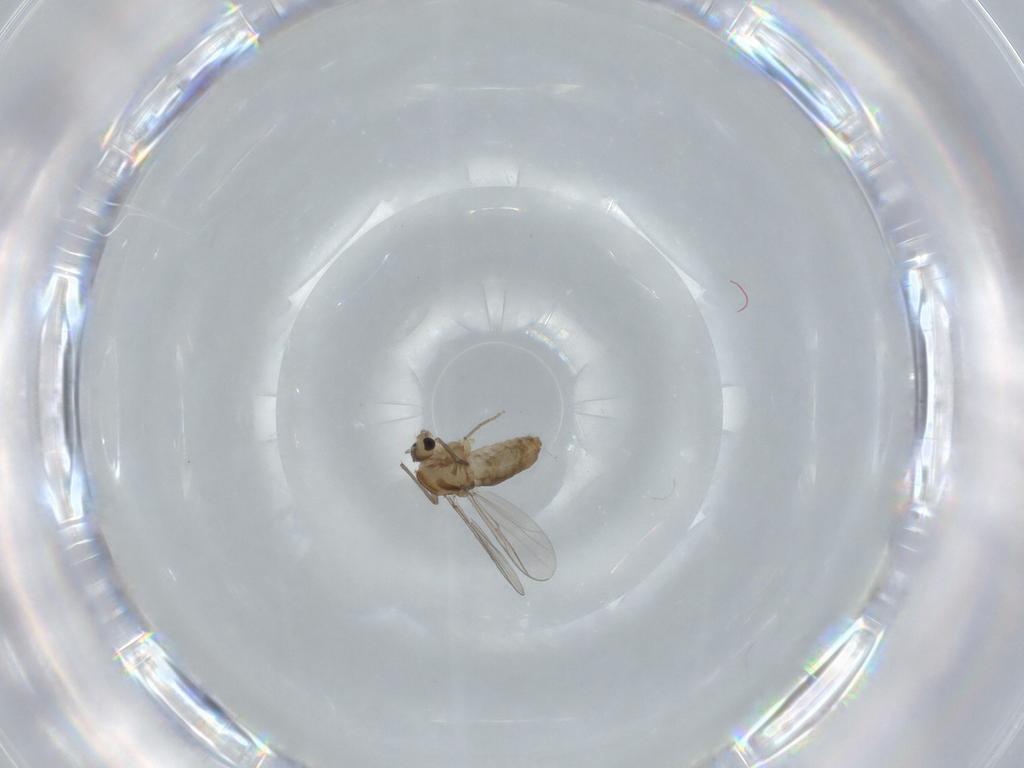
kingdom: Animalia
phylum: Arthropoda
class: Insecta
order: Diptera
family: Chironomidae
